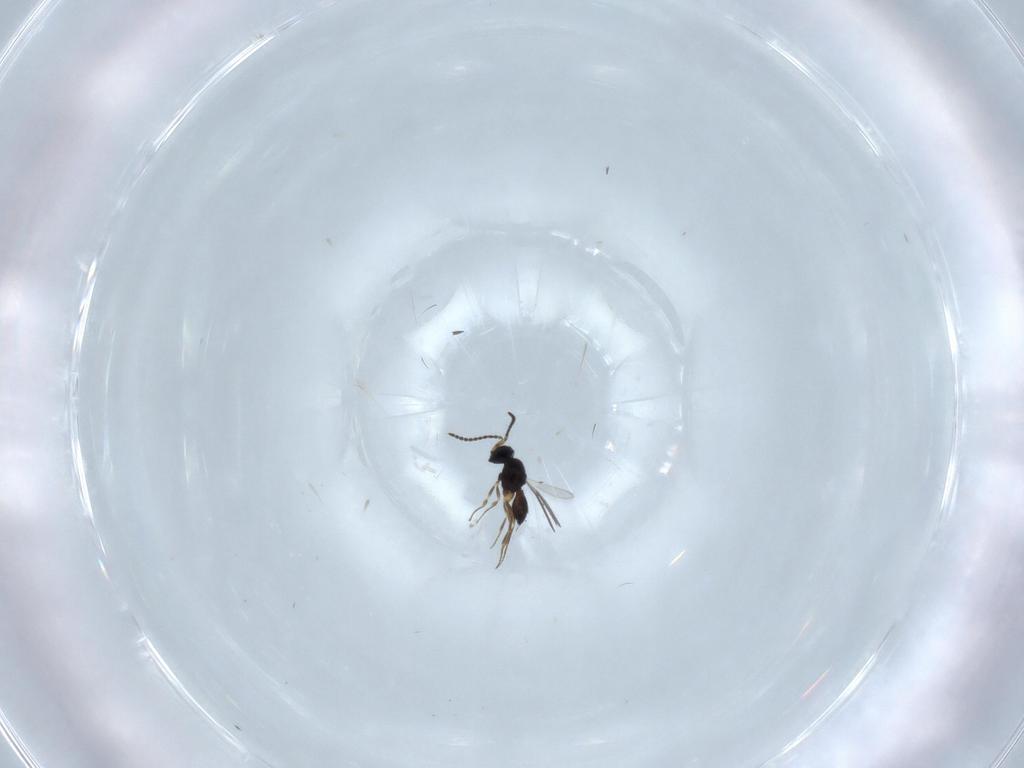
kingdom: Animalia
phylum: Arthropoda
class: Insecta
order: Hymenoptera
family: Scelionidae
